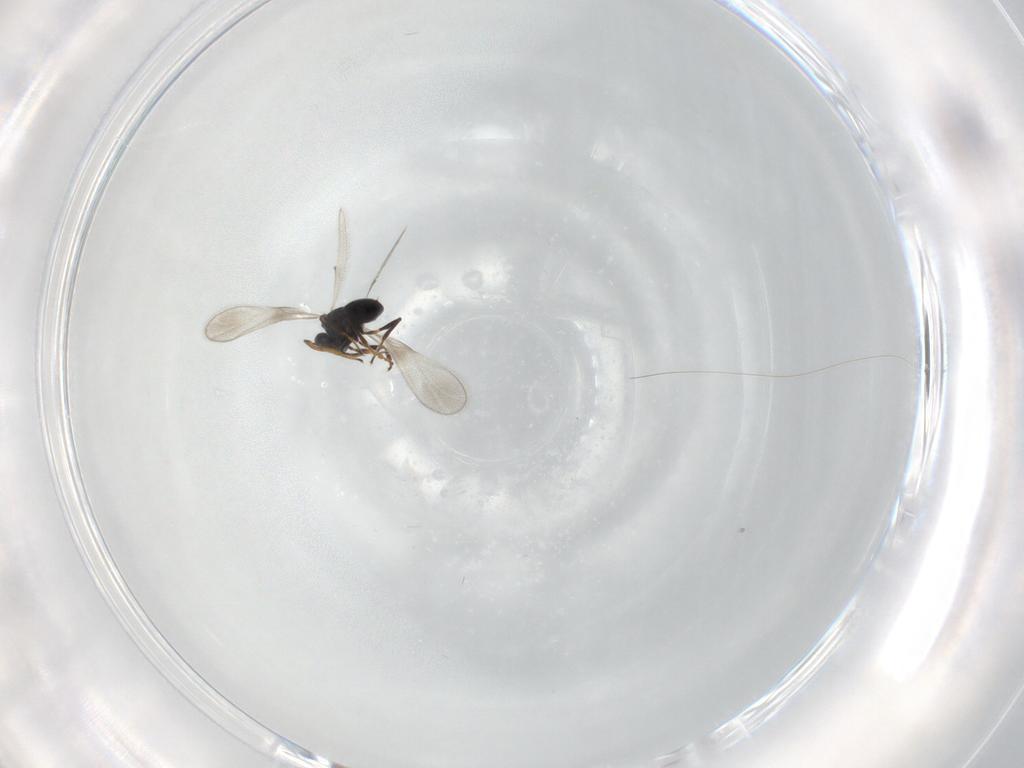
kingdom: Animalia
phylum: Arthropoda
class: Insecta
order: Hymenoptera
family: Platygastridae
